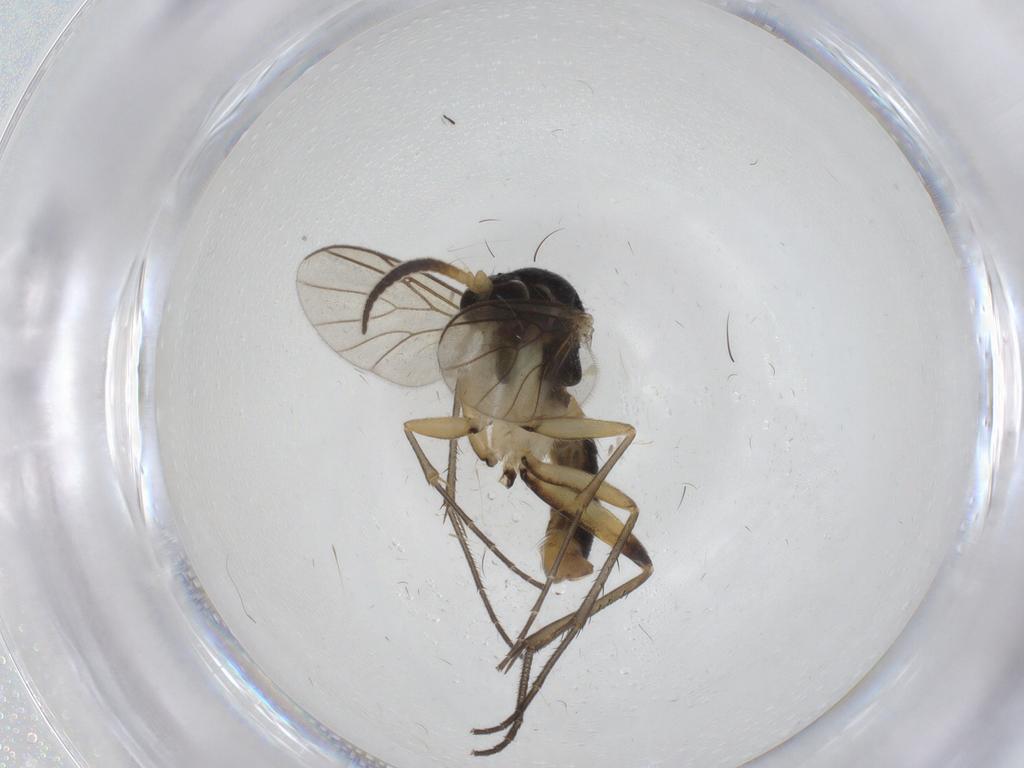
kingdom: Animalia
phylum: Arthropoda
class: Insecta
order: Diptera
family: Mycetophilidae
